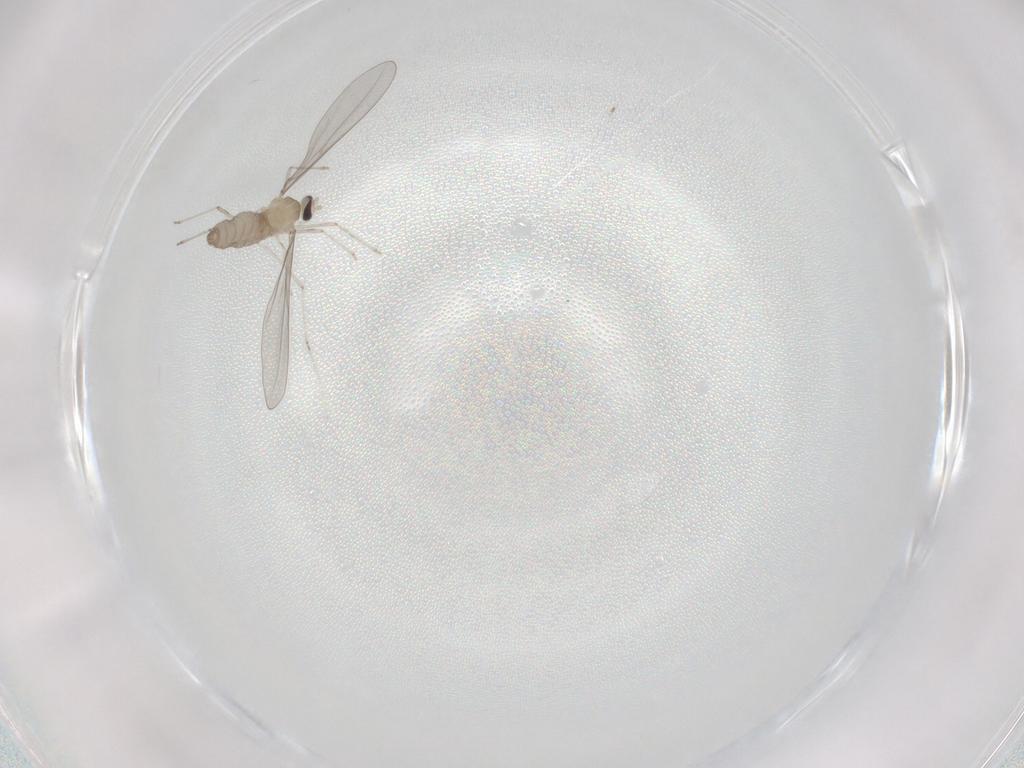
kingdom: Animalia
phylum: Arthropoda
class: Insecta
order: Diptera
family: Cecidomyiidae
